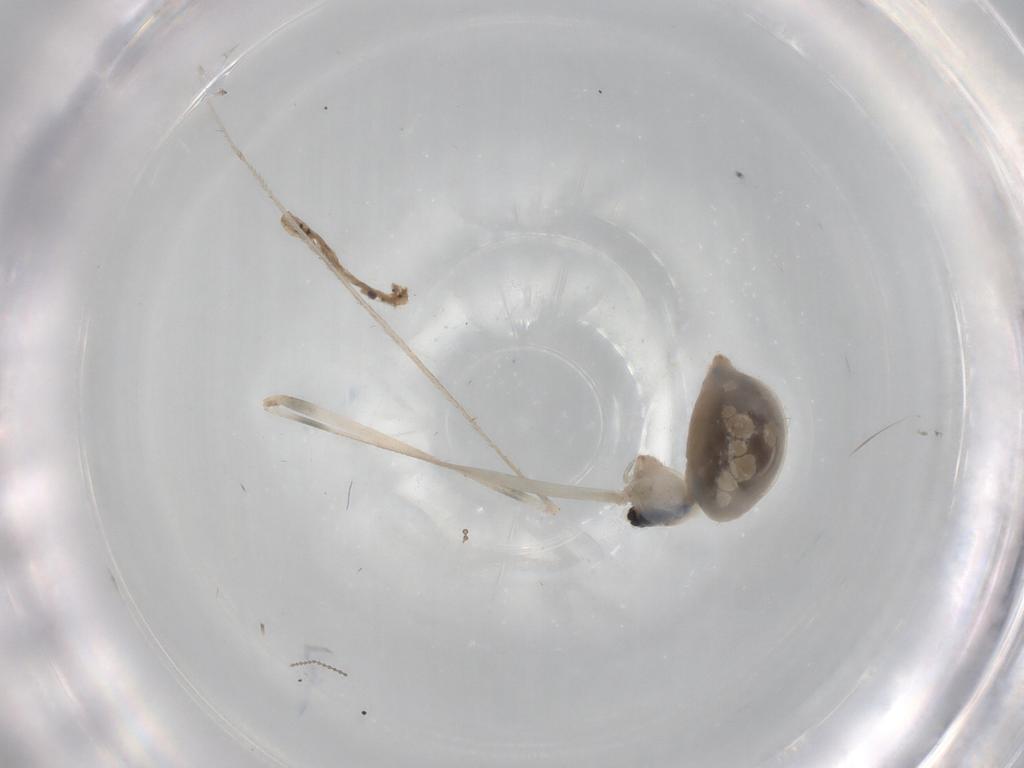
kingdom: Animalia
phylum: Arthropoda
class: Arachnida
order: Araneae
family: Pholcidae
